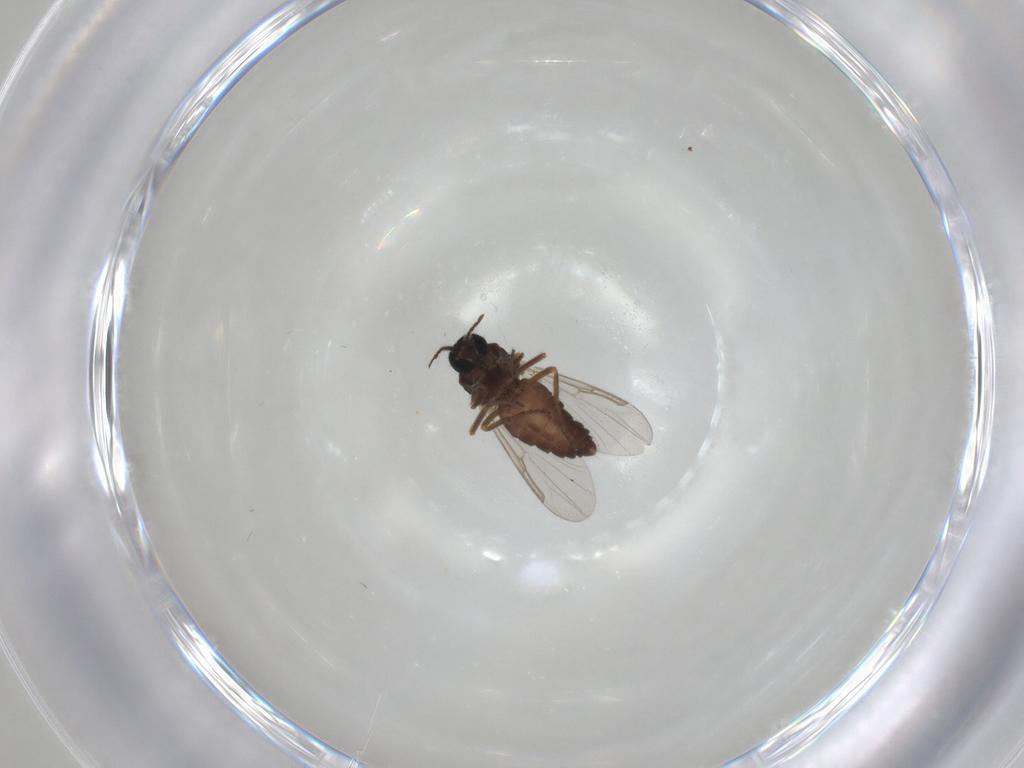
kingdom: Animalia
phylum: Arthropoda
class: Insecta
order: Diptera
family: Ceratopogonidae
